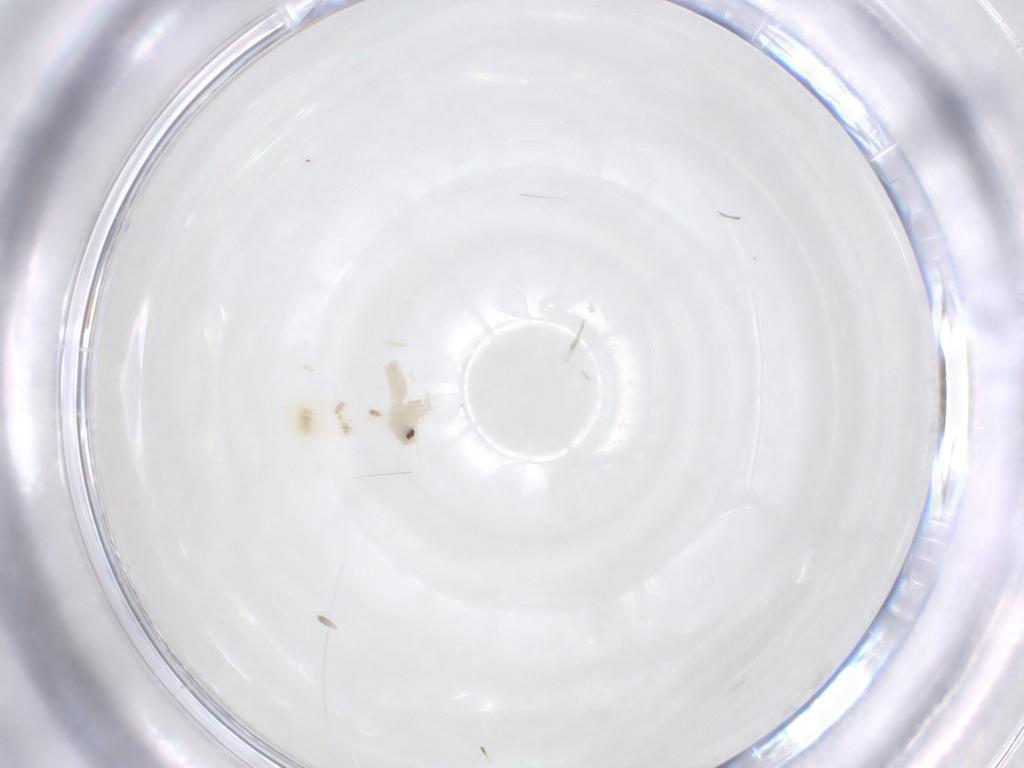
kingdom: Animalia
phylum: Arthropoda
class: Insecta
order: Hemiptera
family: Aleyrodidae
